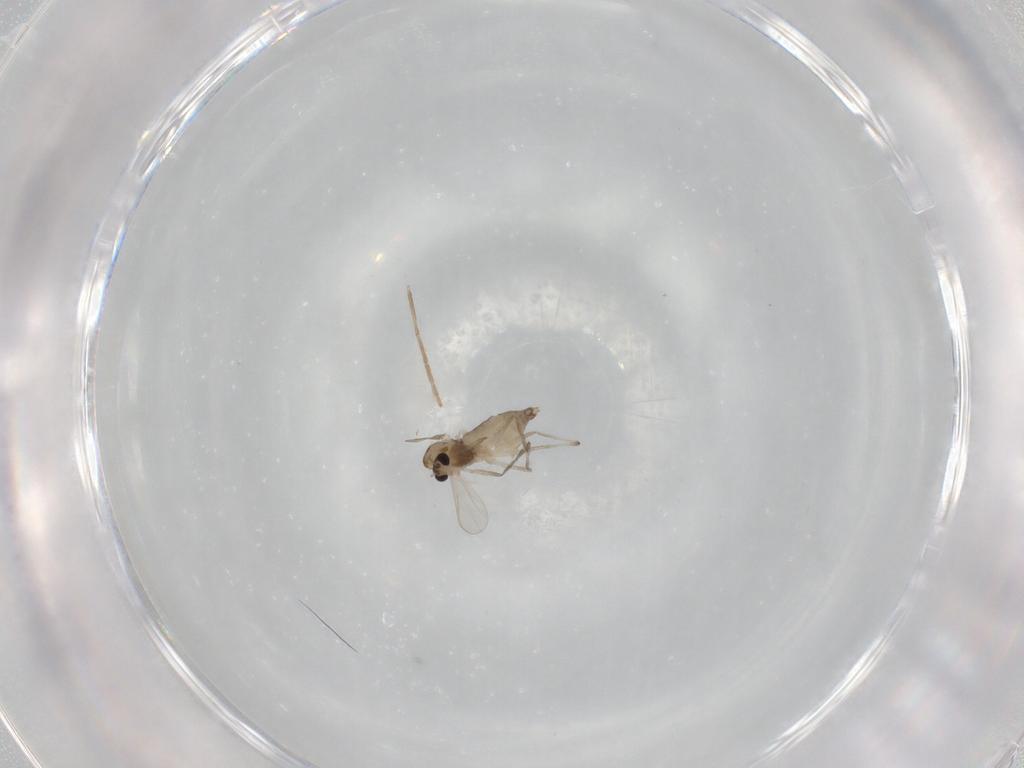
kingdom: Animalia
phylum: Arthropoda
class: Insecta
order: Diptera
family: Chironomidae
